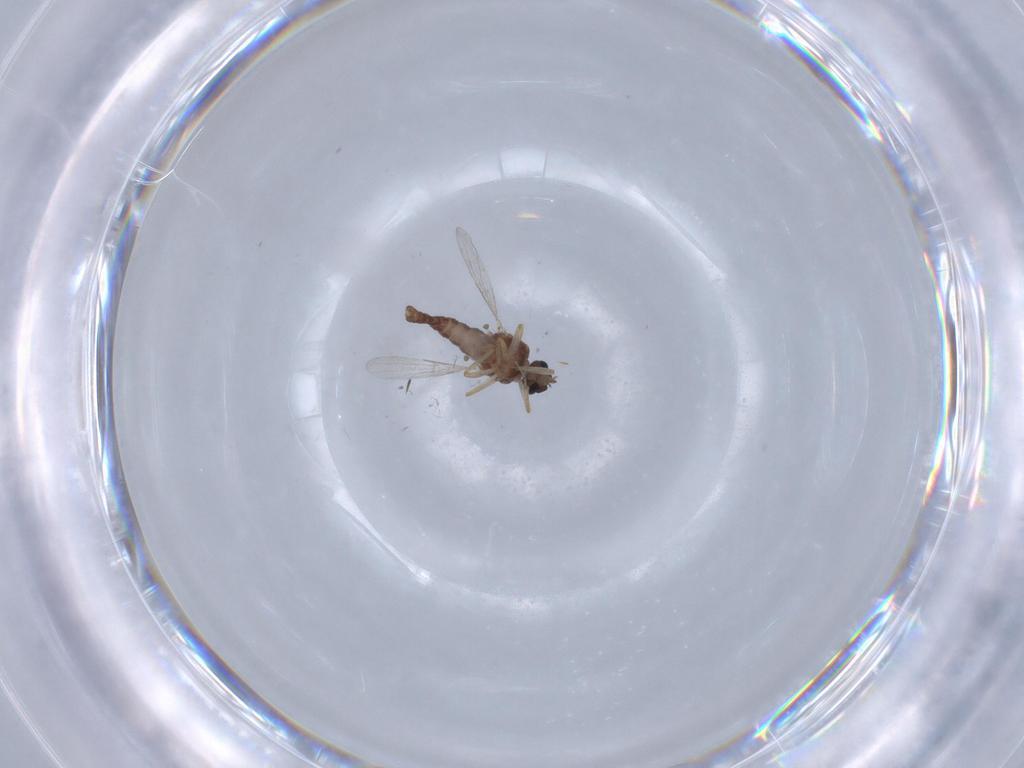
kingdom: Animalia
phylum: Arthropoda
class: Insecta
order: Diptera
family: Ceratopogonidae
